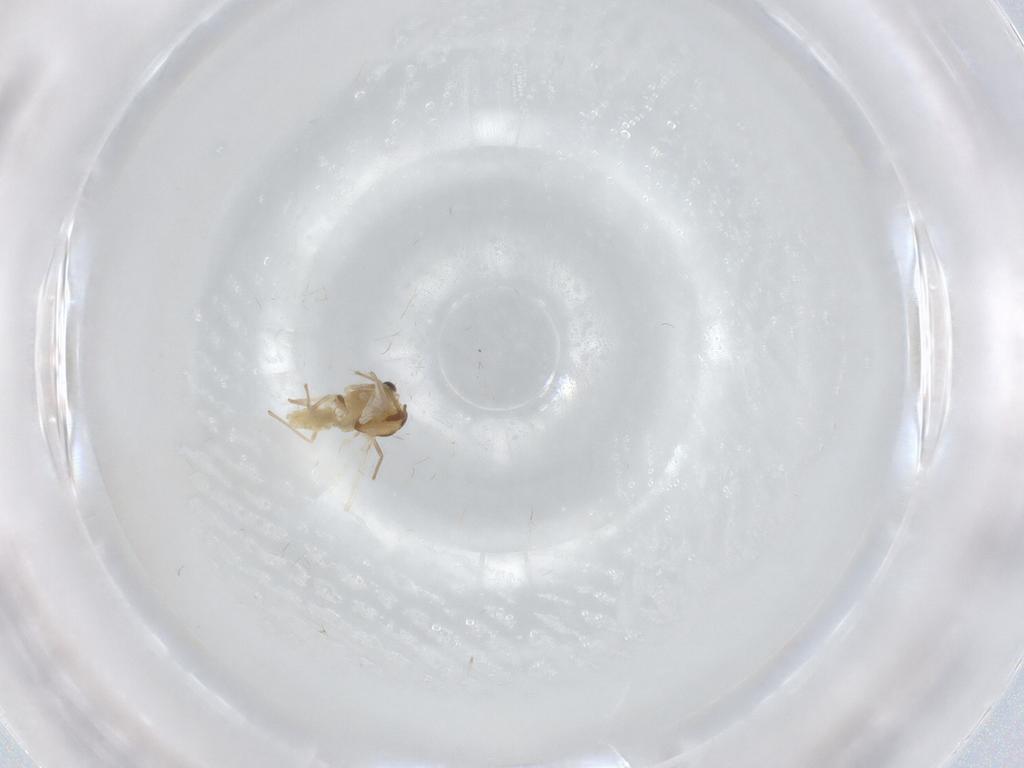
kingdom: Animalia
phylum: Arthropoda
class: Insecta
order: Diptera
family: Chironomidae
